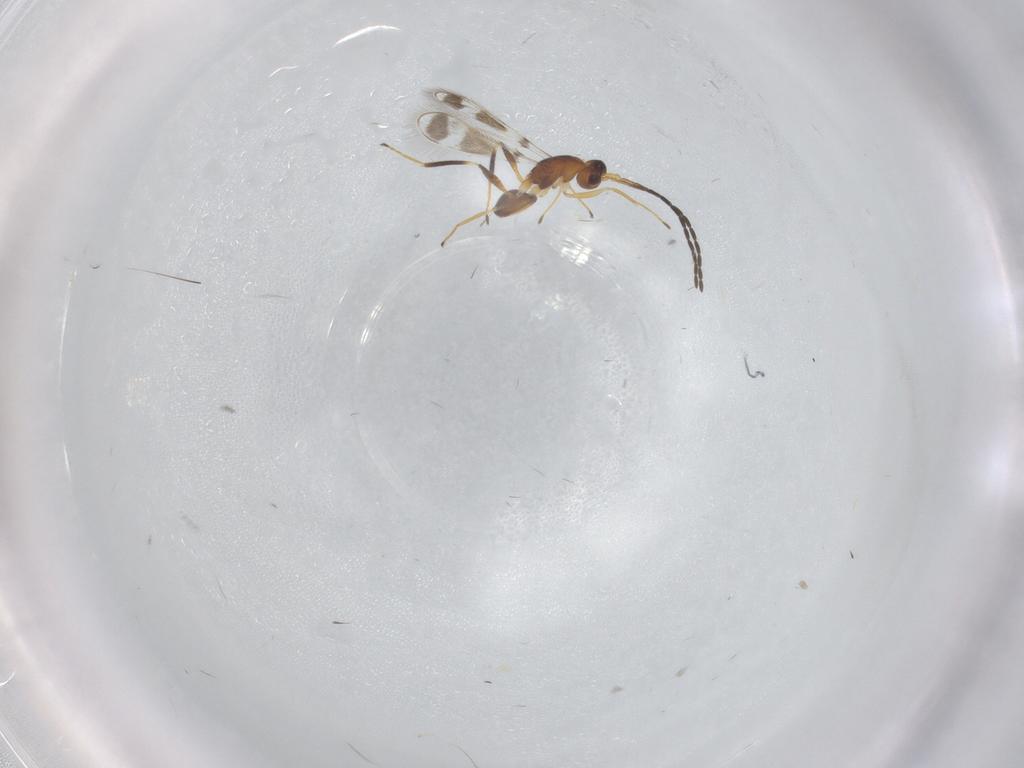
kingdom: Animalia
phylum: Arthropoda
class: Insecta
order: Hymenoptera
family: Mymaridae
